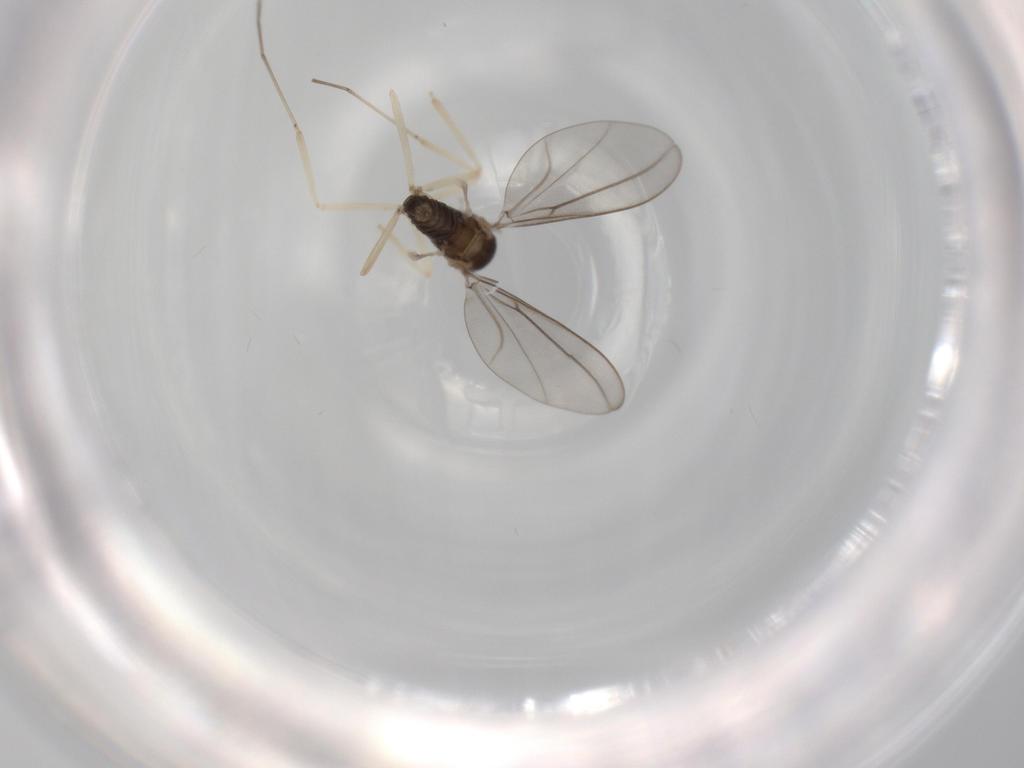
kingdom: Animalia
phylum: Arthropoda
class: Insecta
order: Diptera
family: Cecidomyiidae
